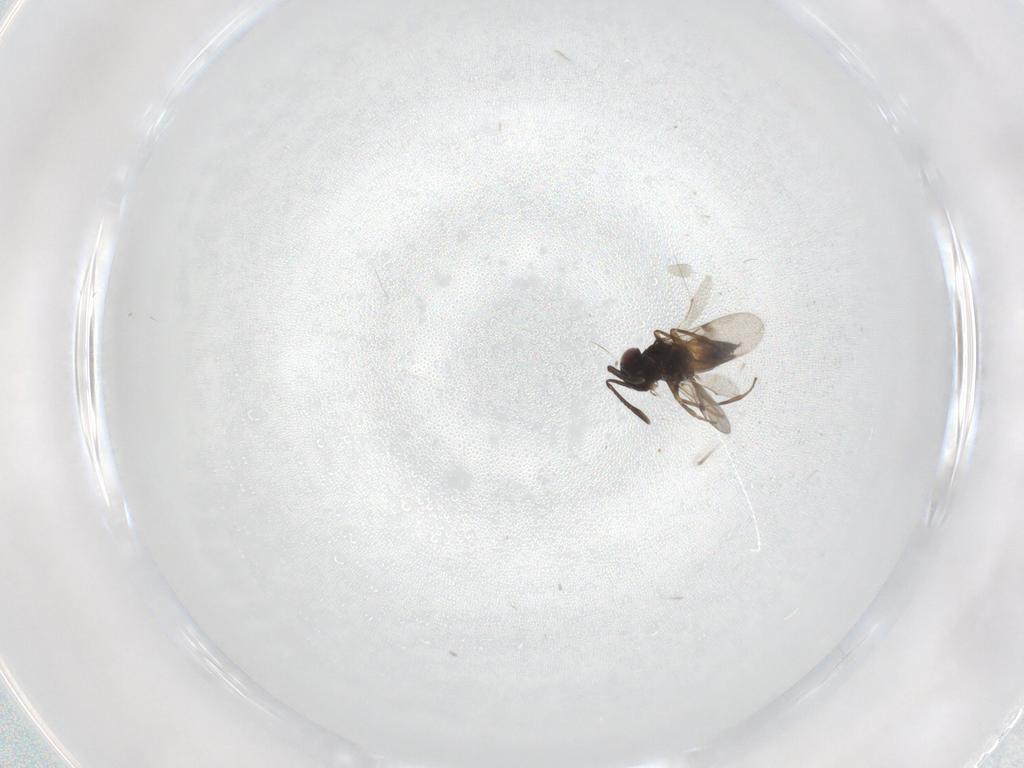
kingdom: Animalia
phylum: Arthropoda
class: Insecta
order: Hymenoptera
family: Encyrtidae
